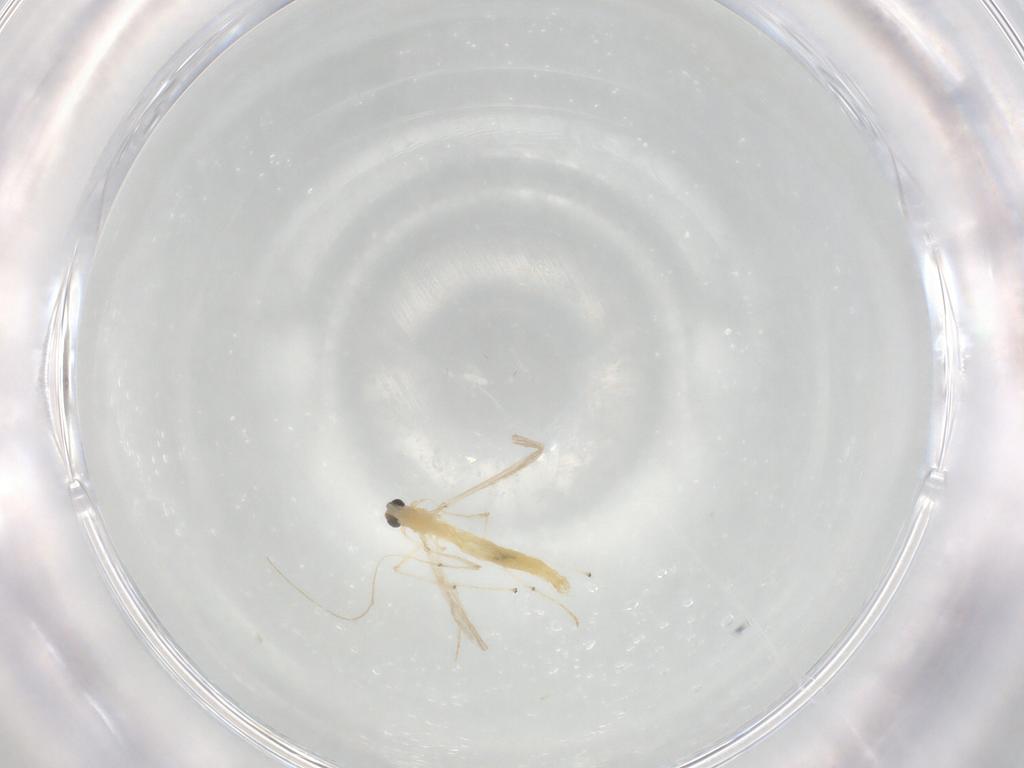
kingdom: Animalia
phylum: Arthropoda
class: Insecta
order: Diptera
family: Chironomidae
